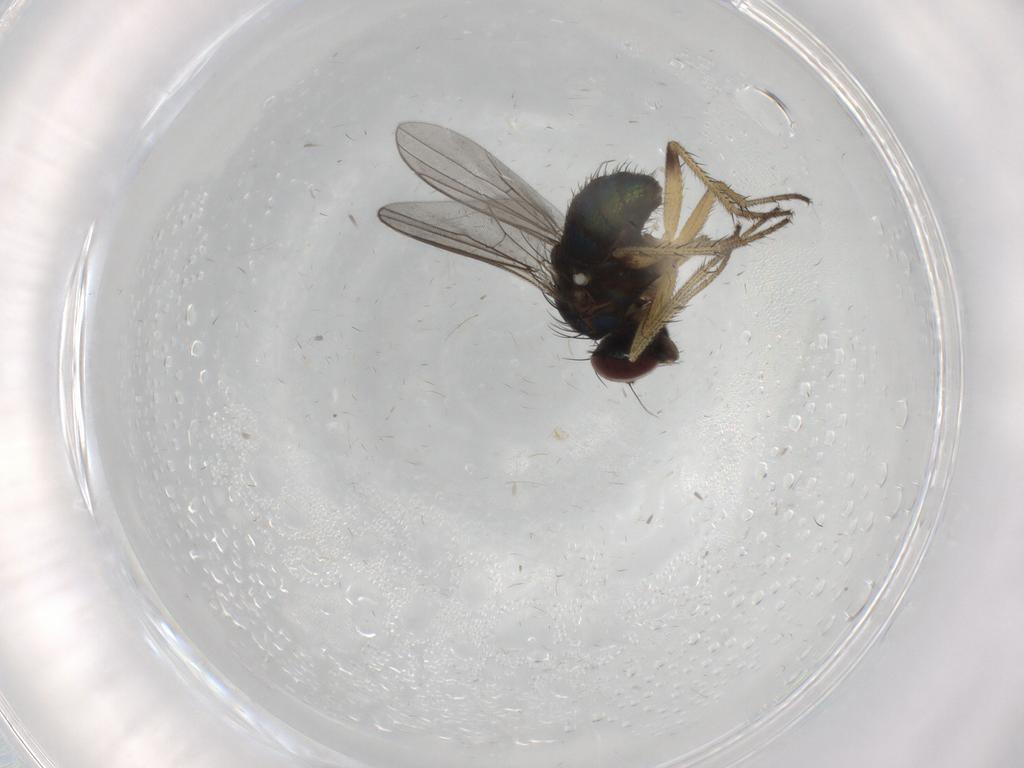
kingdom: Animalia
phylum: Arthropoda
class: Insecta
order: Diptera
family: Dolichopodidae
